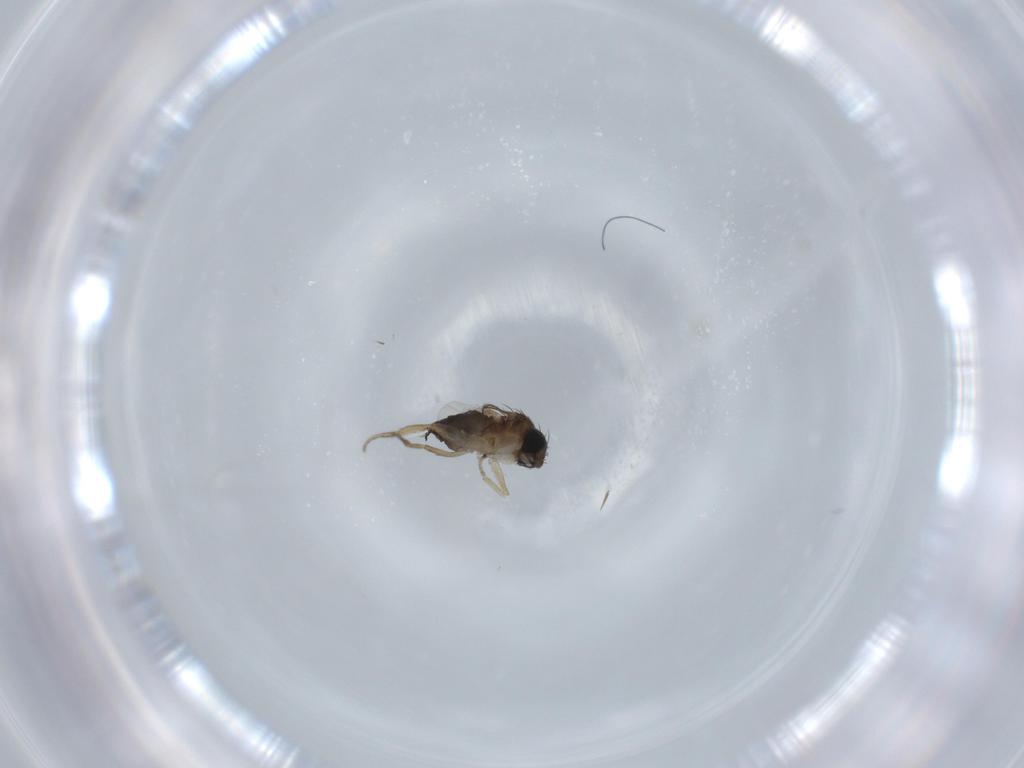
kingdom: Animalia
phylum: Arthropoda
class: Insecta
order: Diptera
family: Phoridae
